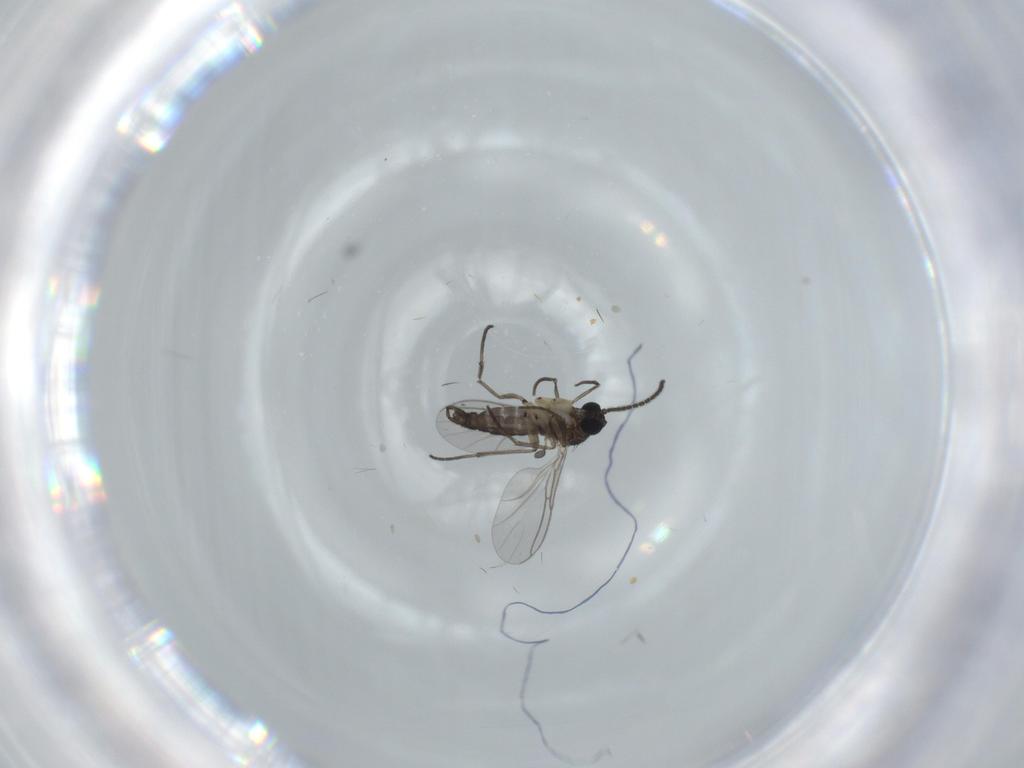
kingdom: Animalia
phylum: Arthropoda
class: Insecta
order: Diptera
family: Sciaridae
